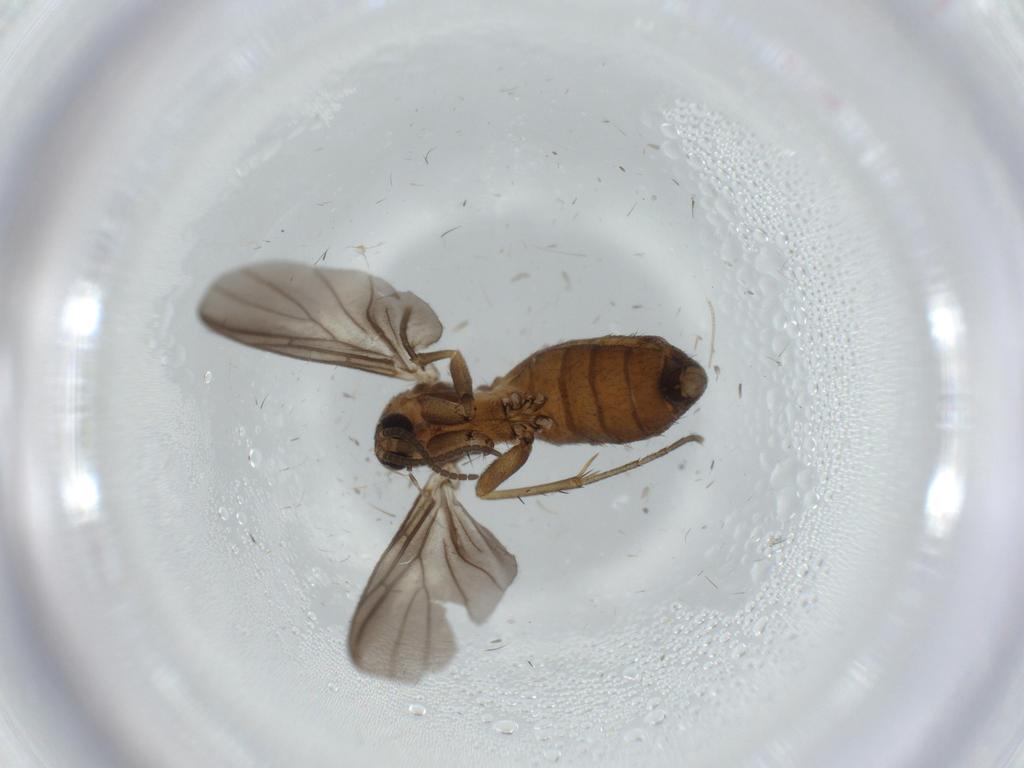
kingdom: Animalia
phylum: Arthropoda
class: Insecta
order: Diptera
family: Mycetophilidae
